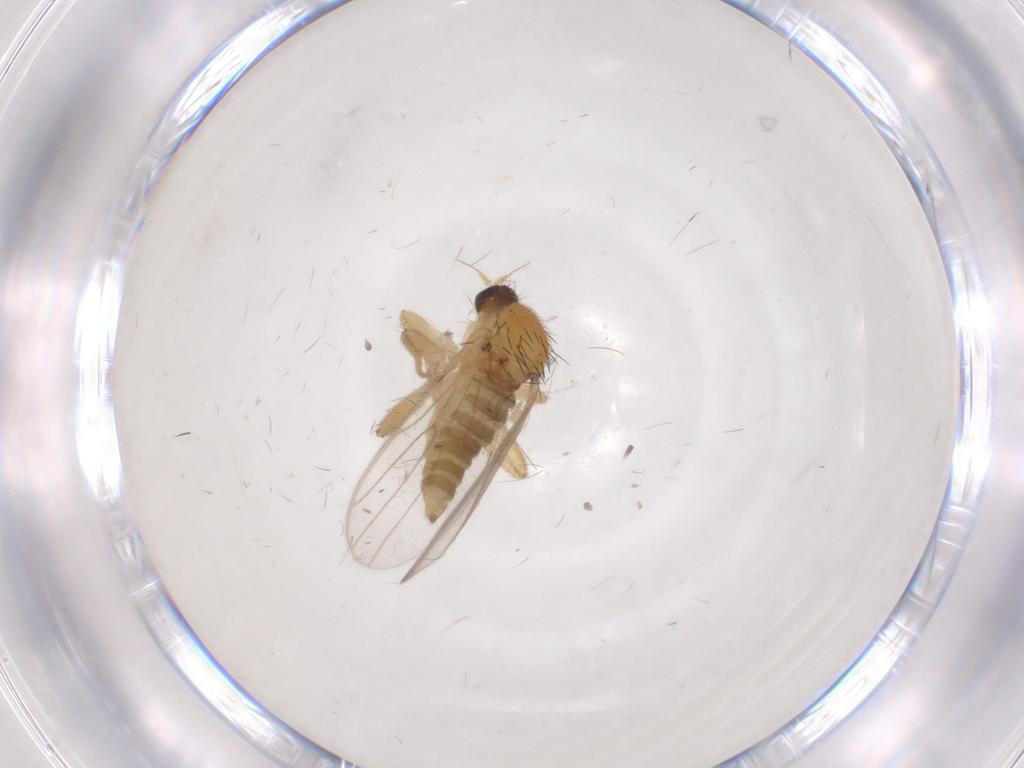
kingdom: Animalia
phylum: Arthropoda
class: Insecta
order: Diptera
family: Hybotidae
